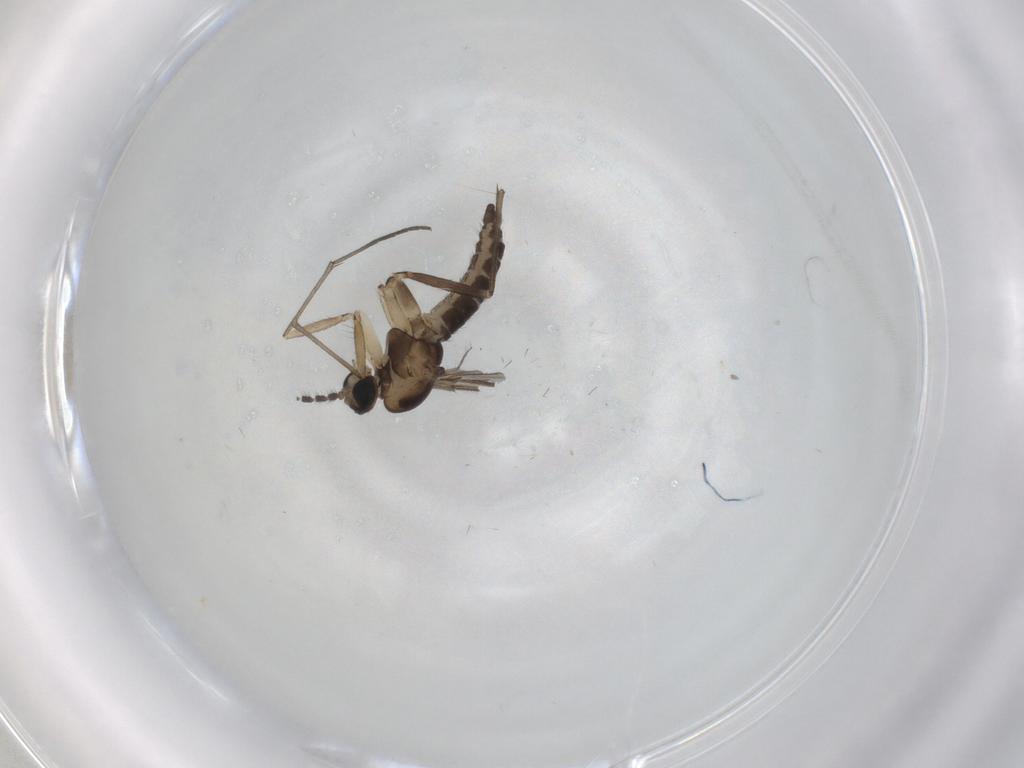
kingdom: Animalia
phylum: Arthropoda
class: Insecta
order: Diptera
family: Sciaridae
